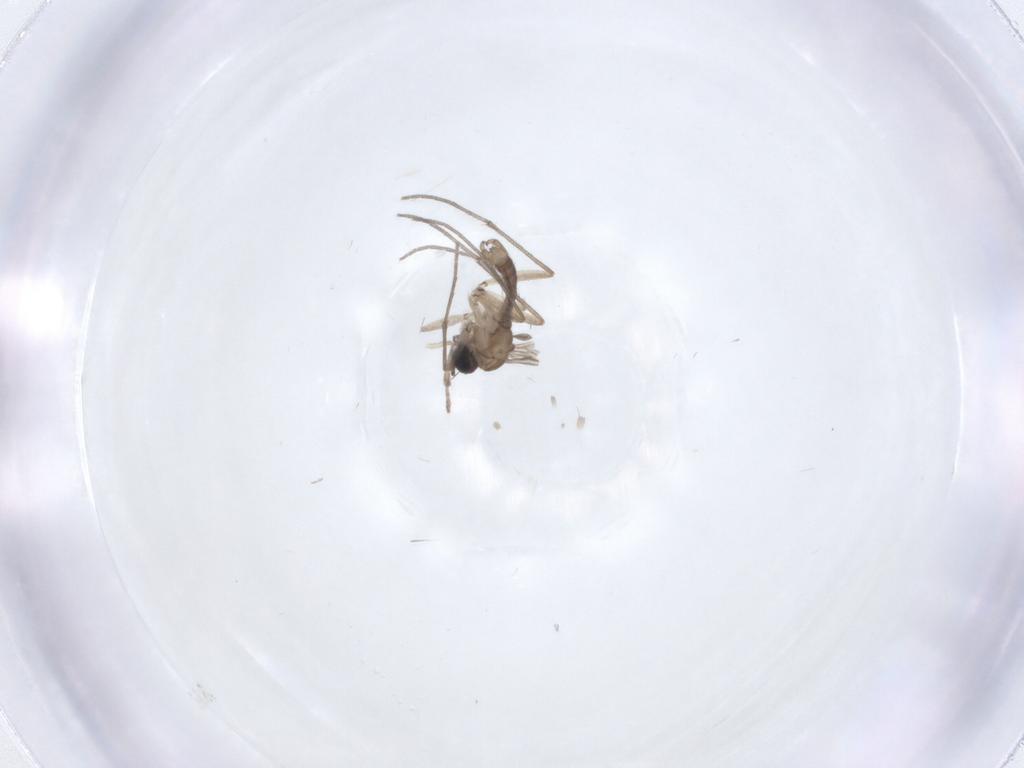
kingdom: Animalia
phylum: Arthropoda
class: Insecta
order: Diptera
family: Sciaridae
